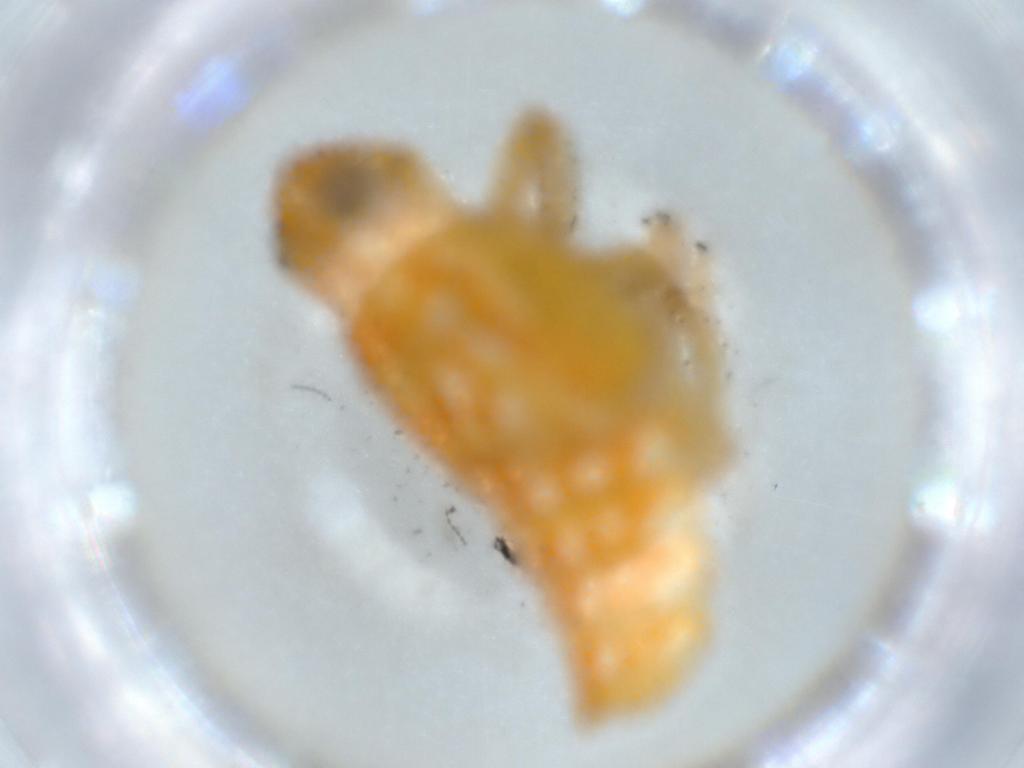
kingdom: Animalia
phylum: Arthropoda
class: Insecta
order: Hemiptera
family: Issidae
